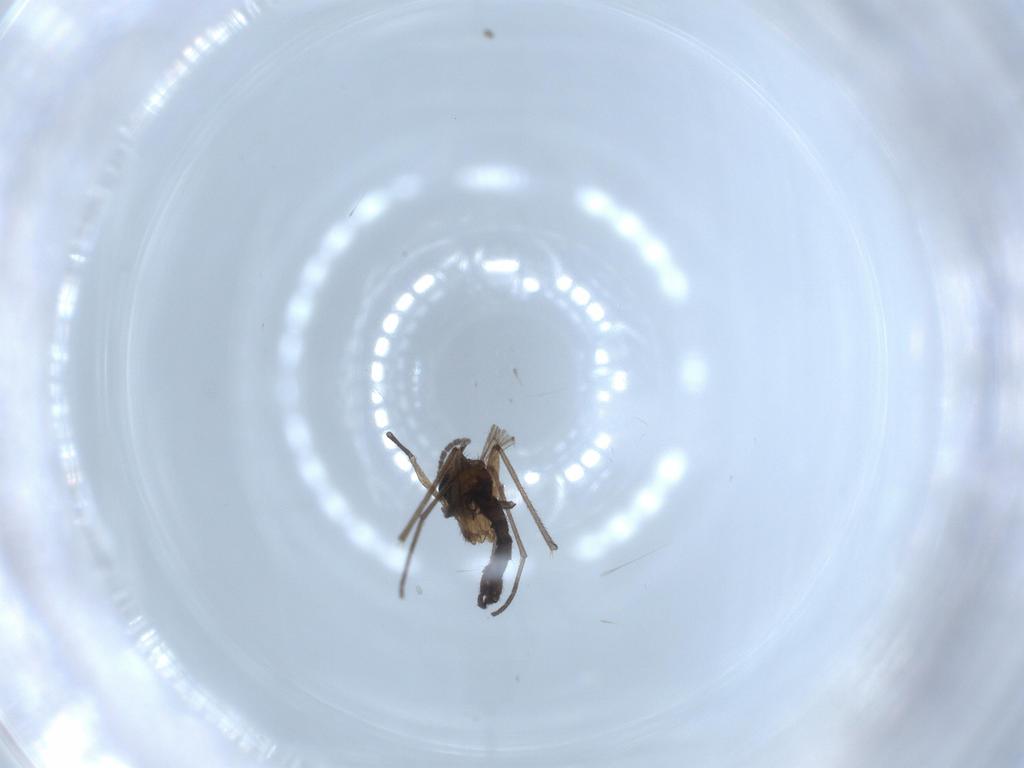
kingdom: Animalia
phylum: Arthropoda
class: Insecta
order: Diptera
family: Sciaridae
